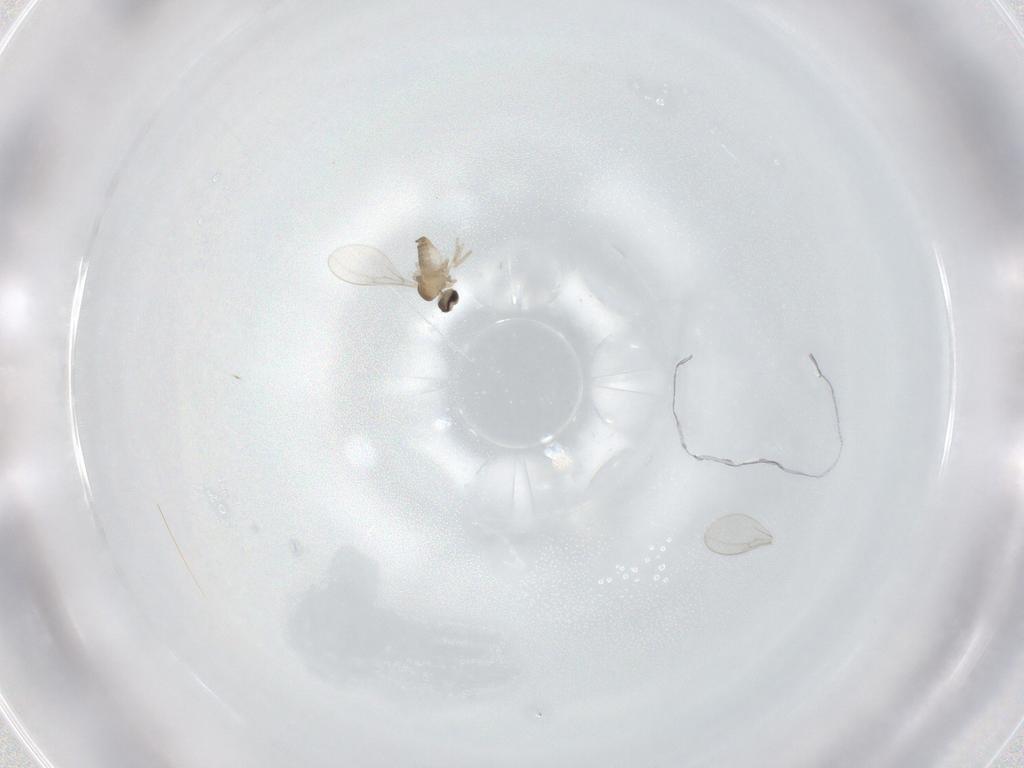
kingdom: Animalia
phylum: Arthropoda
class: Insecta
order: Diptera
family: Cecidomyiidae
